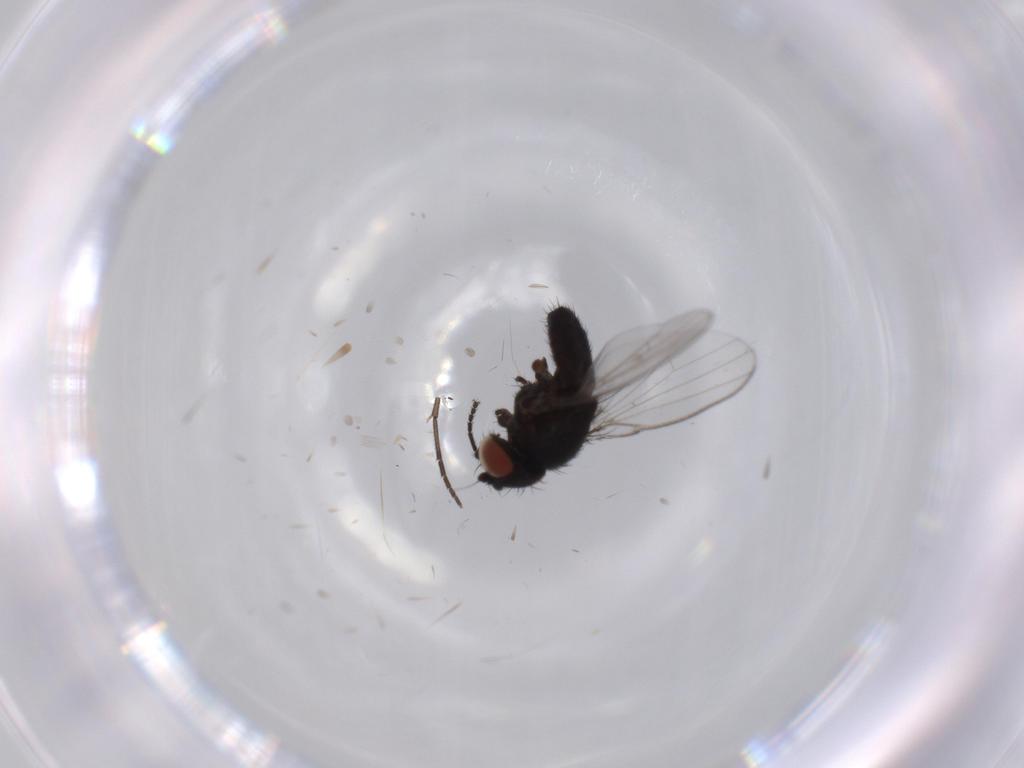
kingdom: Animalia
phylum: Arthropoda
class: Insecta
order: Diptera
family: Milichiidae
